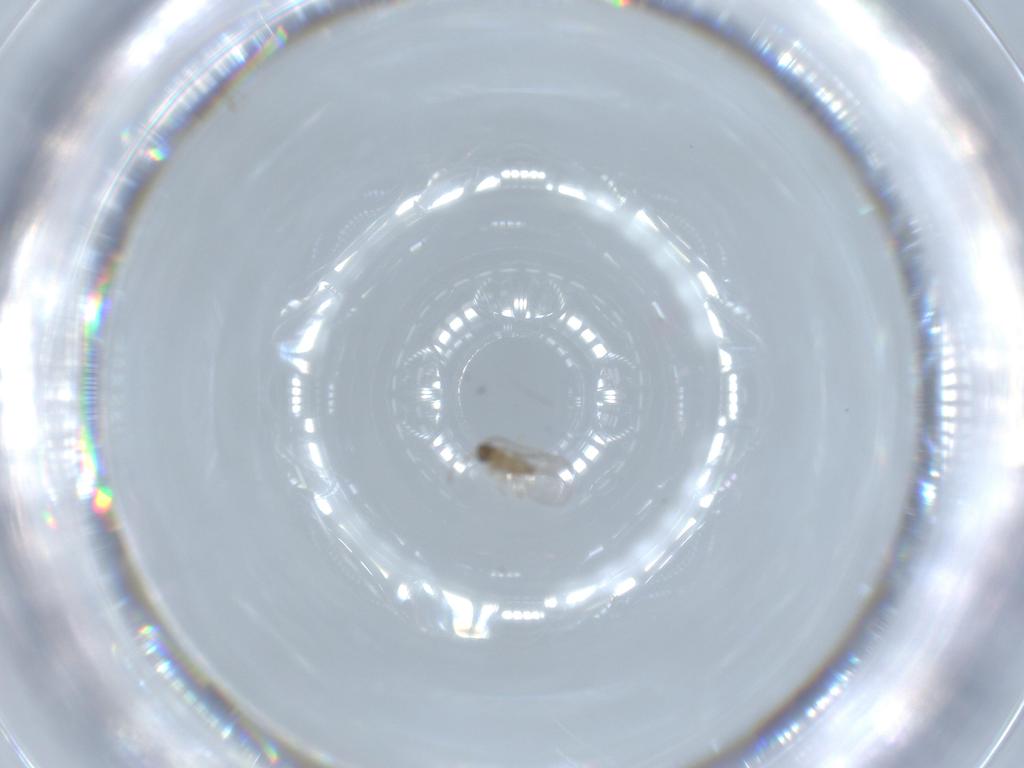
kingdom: Animalia
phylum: Arthropoda
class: Insecta
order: Diptera
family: Cecidomyiidae
